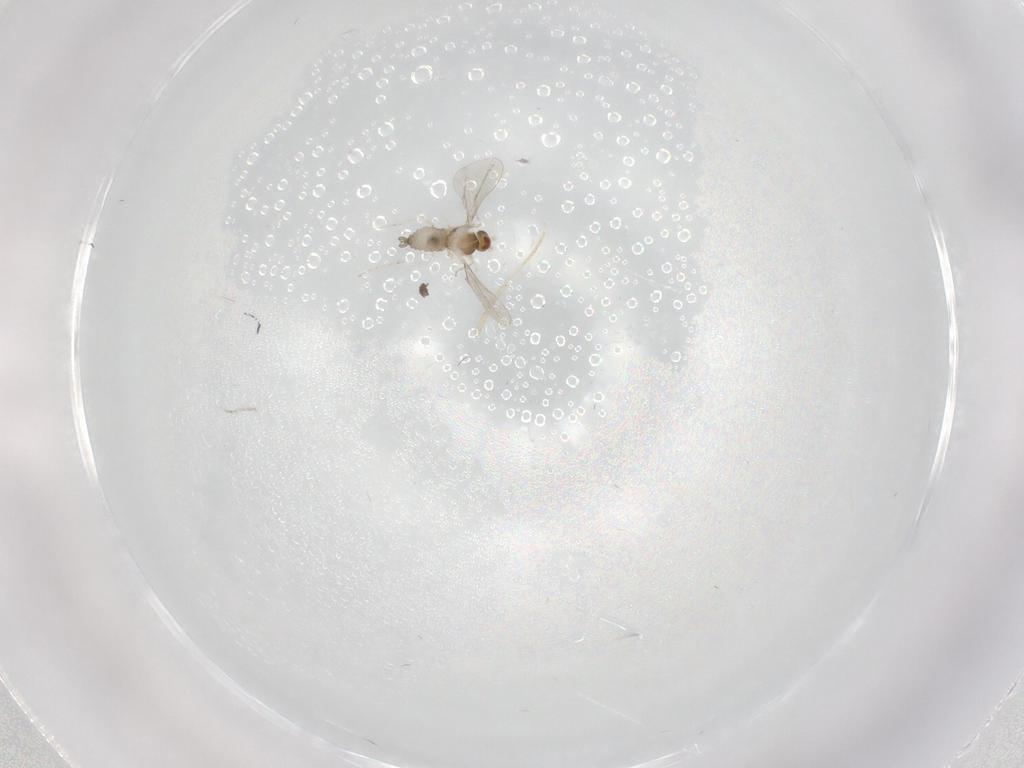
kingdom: Animalia
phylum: Arthropoda
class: Insecta
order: Diptera
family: Cecidomyiidae
